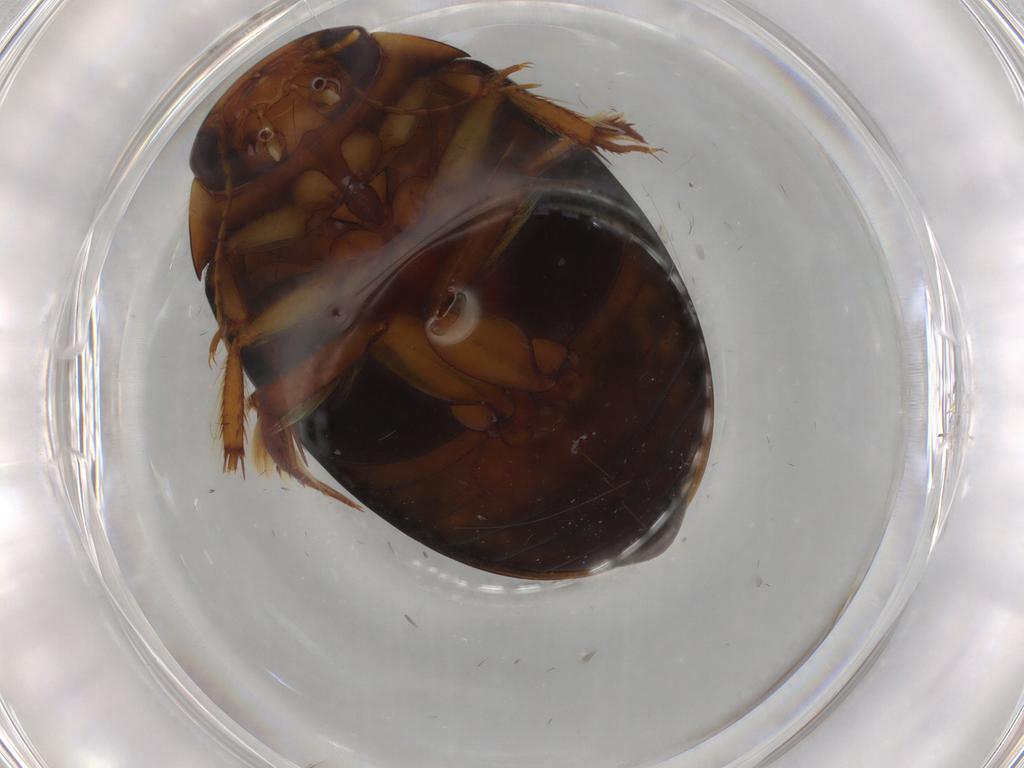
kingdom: Animalia
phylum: Arthropoda
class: Insecta
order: Coleoptera
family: Dytiscidae
